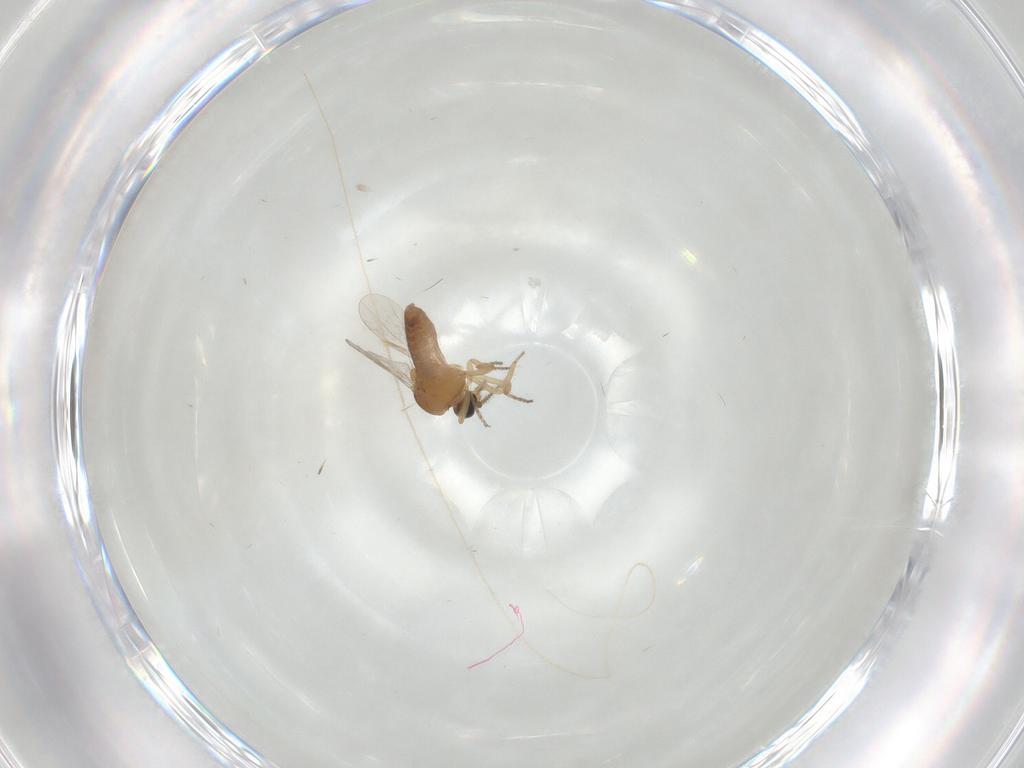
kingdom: Animalia
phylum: Arthropoda
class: Insecta
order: Diptera
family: Ceratopogonidae
